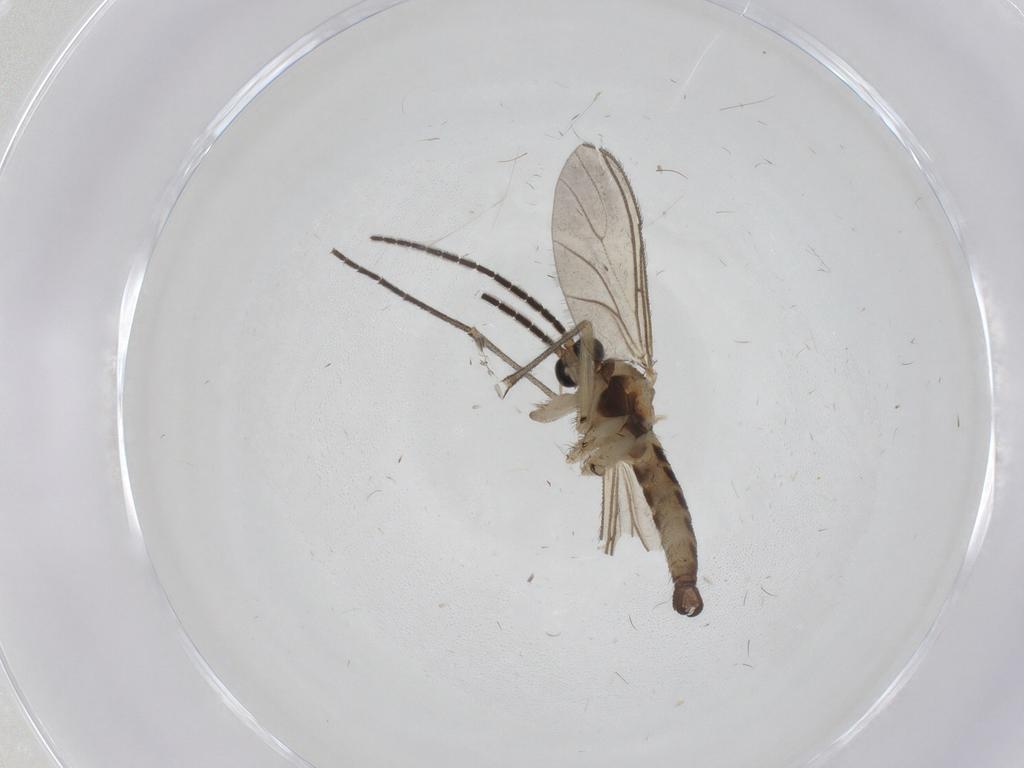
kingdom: Animalia
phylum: Arthropoda
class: Insecta
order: Diptera
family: Sciaridae
